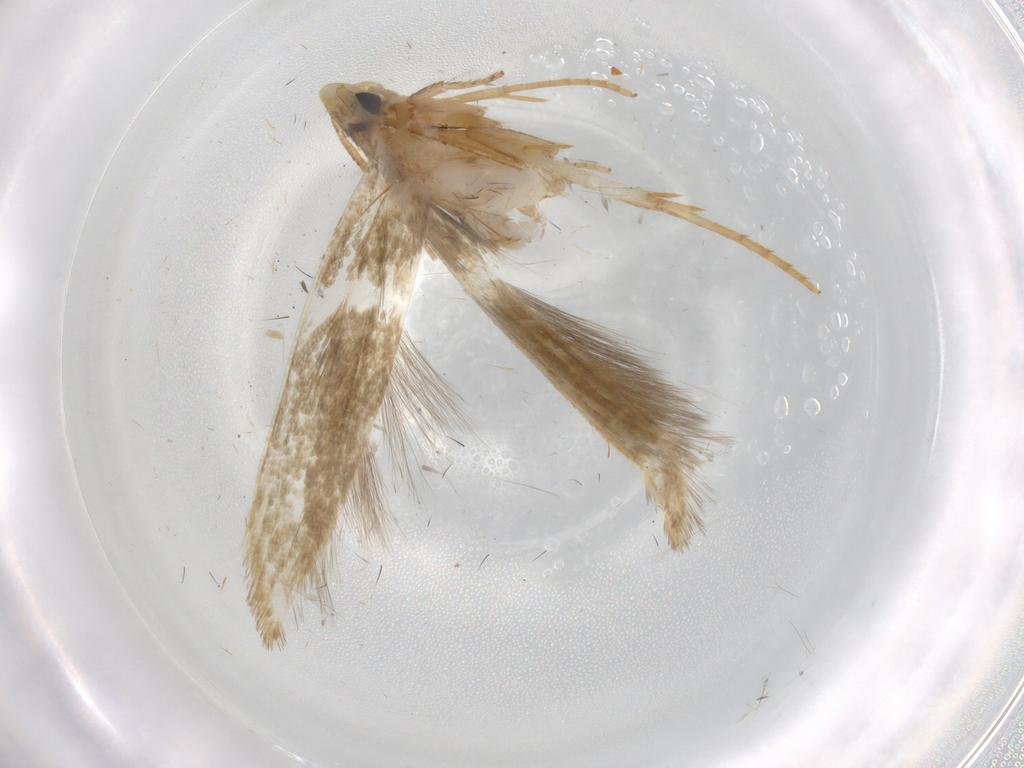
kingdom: Animalia
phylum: Arthropoda
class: Insecta
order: Lepidoptera
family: Tineidae
